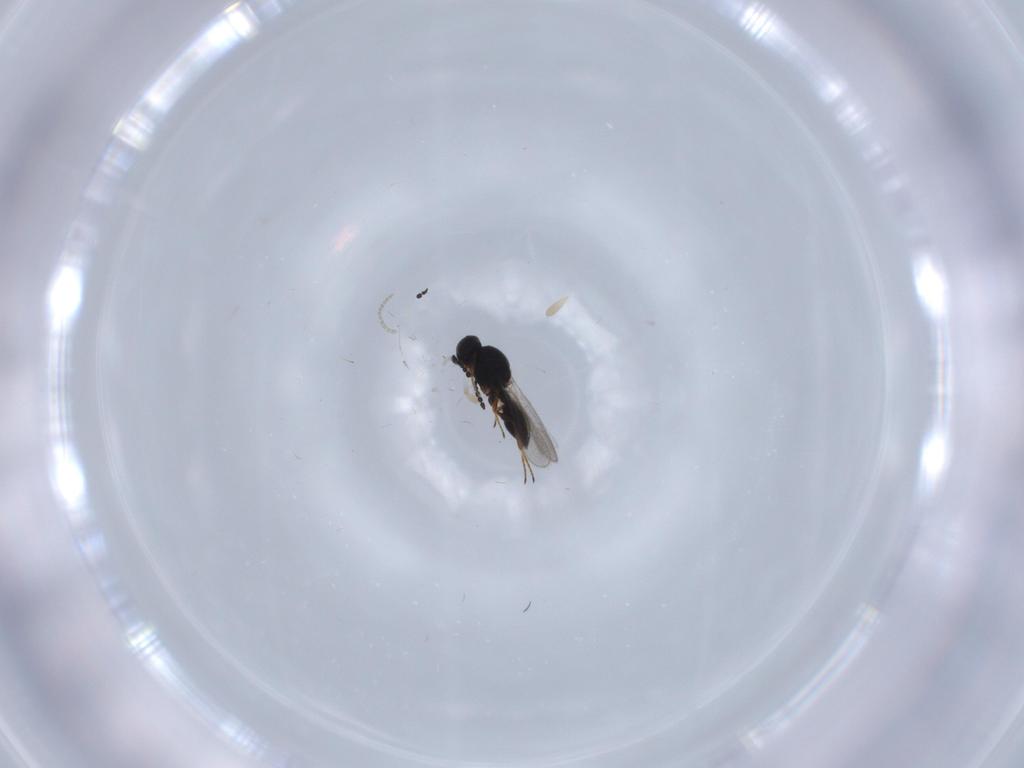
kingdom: Animalia
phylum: Arthropoda
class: Insecta
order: Hymenoptera
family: Platygastridae
